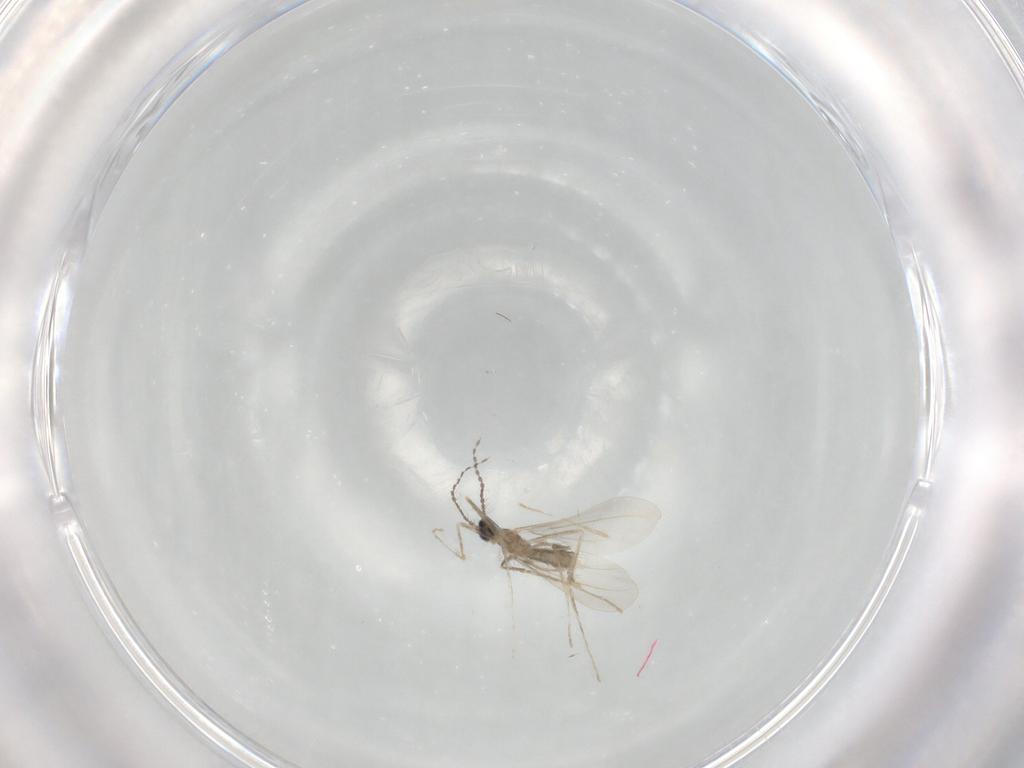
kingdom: Animalia
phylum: Arthropoda
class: Insecta
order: Diptera
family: Cecidomyiidae
